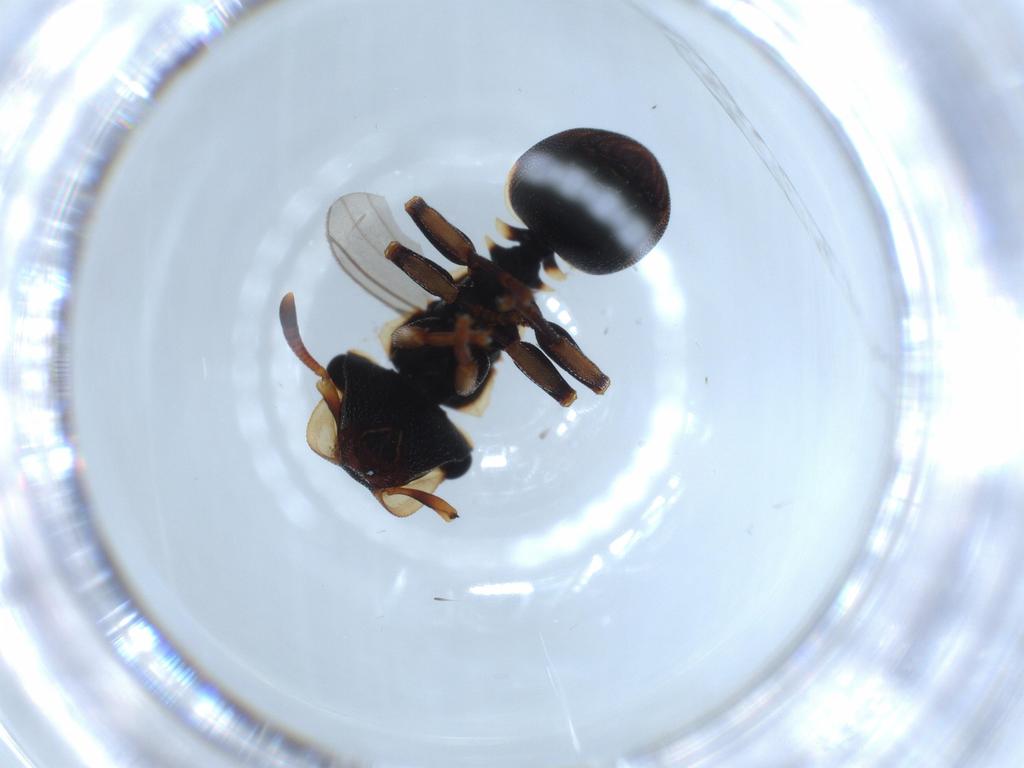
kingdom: Animalia
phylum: Arthropoda
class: Insecta
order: Hymenoptera
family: Formicidae
